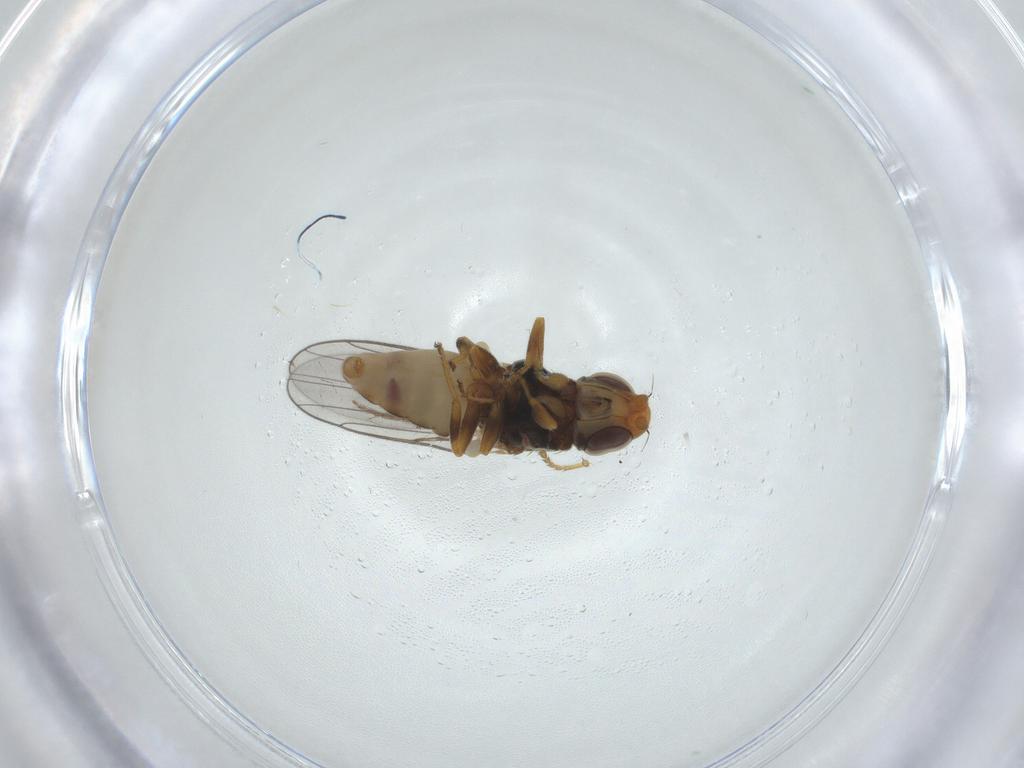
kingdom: Animalia
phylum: Arthropoda
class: Insecta
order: Diptera
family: Chloropidae
